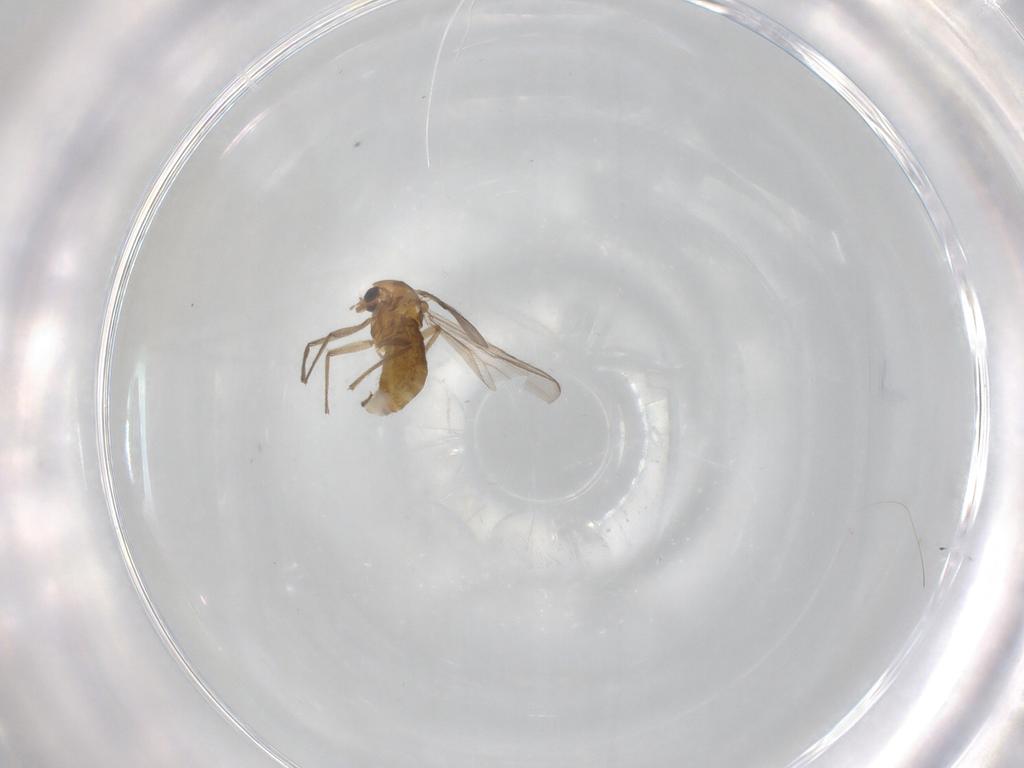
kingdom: Animalia
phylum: Arthropoda
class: Insecta
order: Diptera
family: Chironomidae
